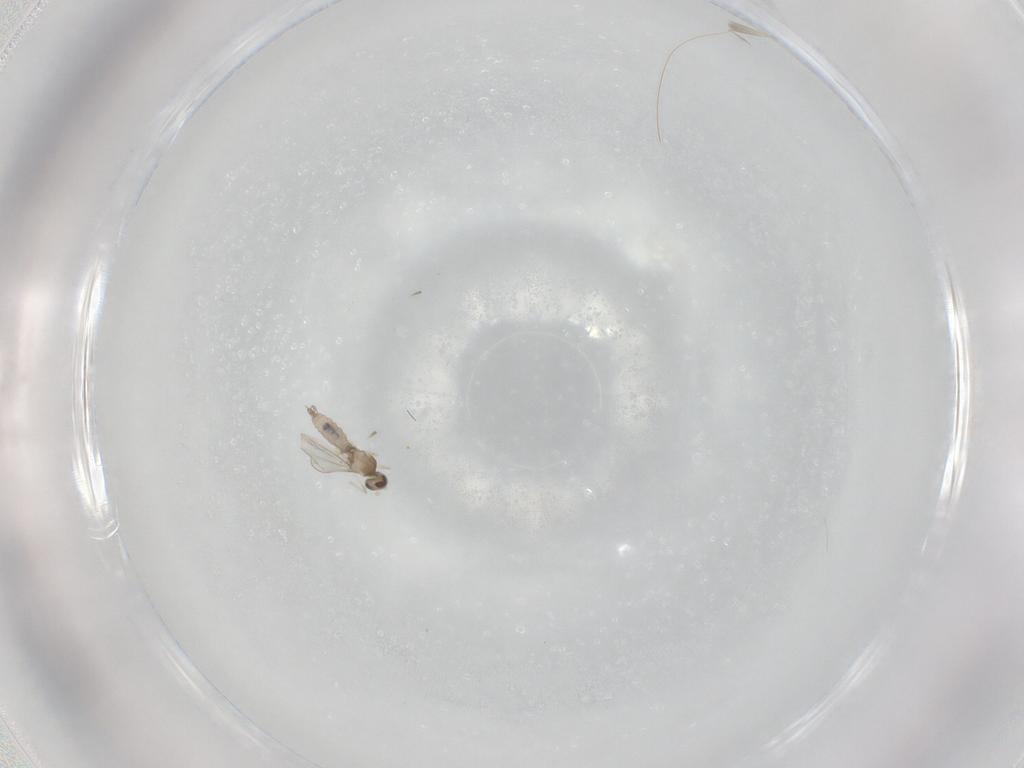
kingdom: Animalia
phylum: Arthropoda
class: Insecta
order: Diptera
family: Cecidomyiidae
